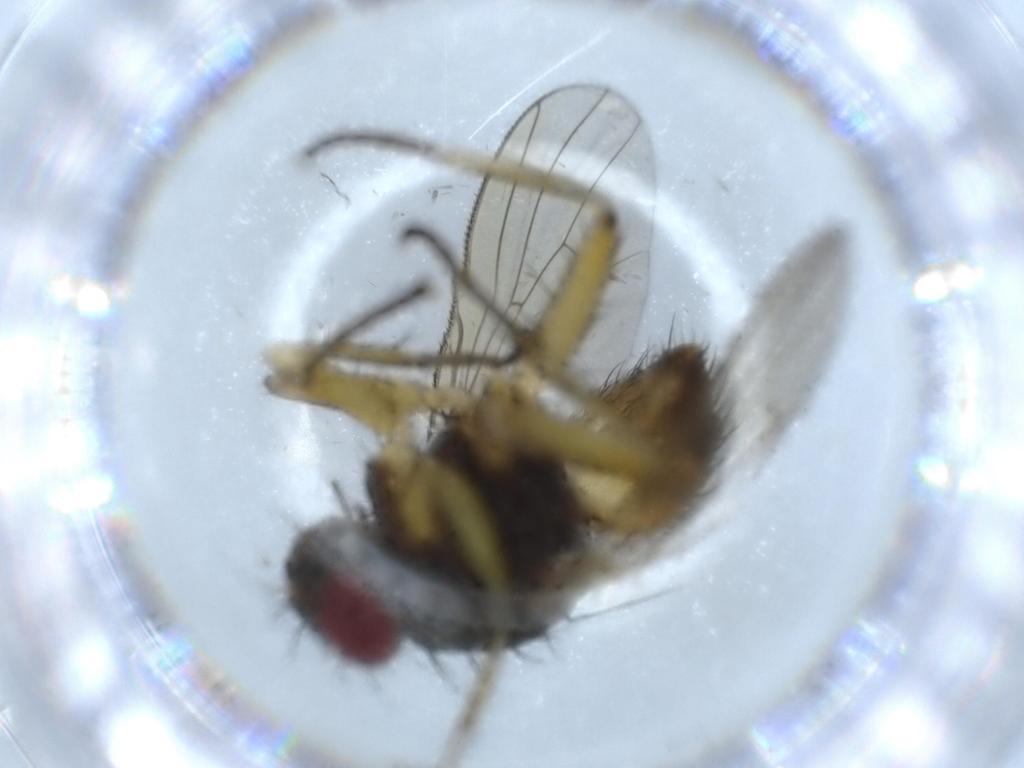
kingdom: Animalia
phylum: Arthropoda
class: Insecta
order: Diptera
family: Muscidae
